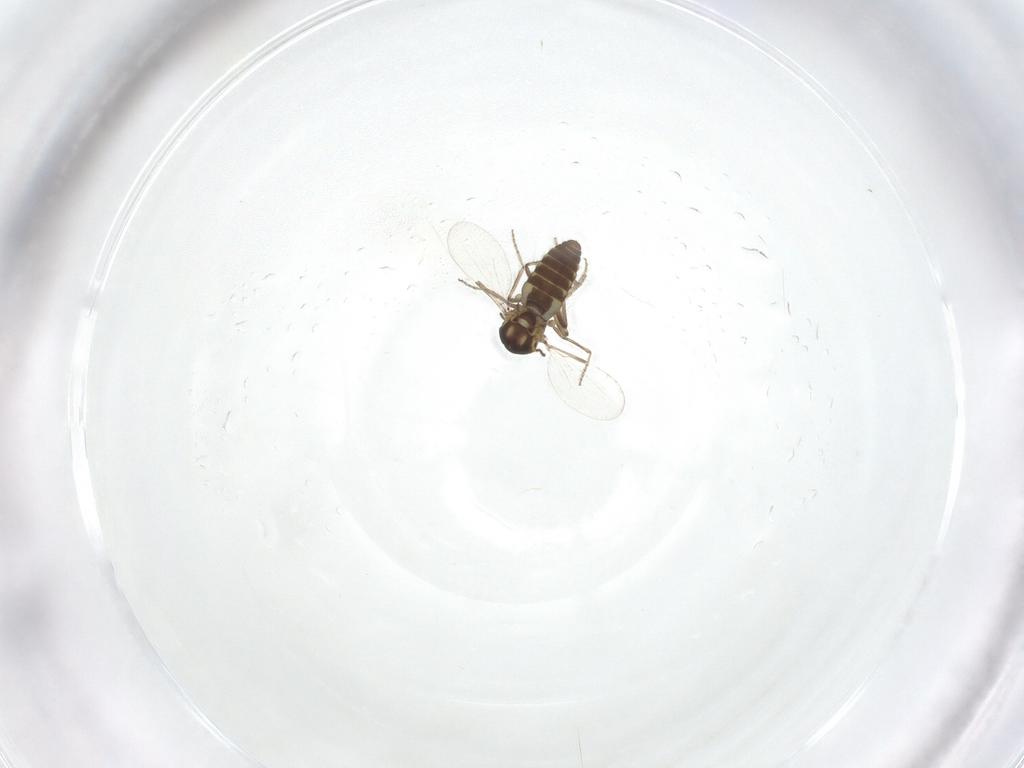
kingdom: Animalia
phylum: Arthropoda
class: Insecta
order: Diptera
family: Ceratopogonidae
